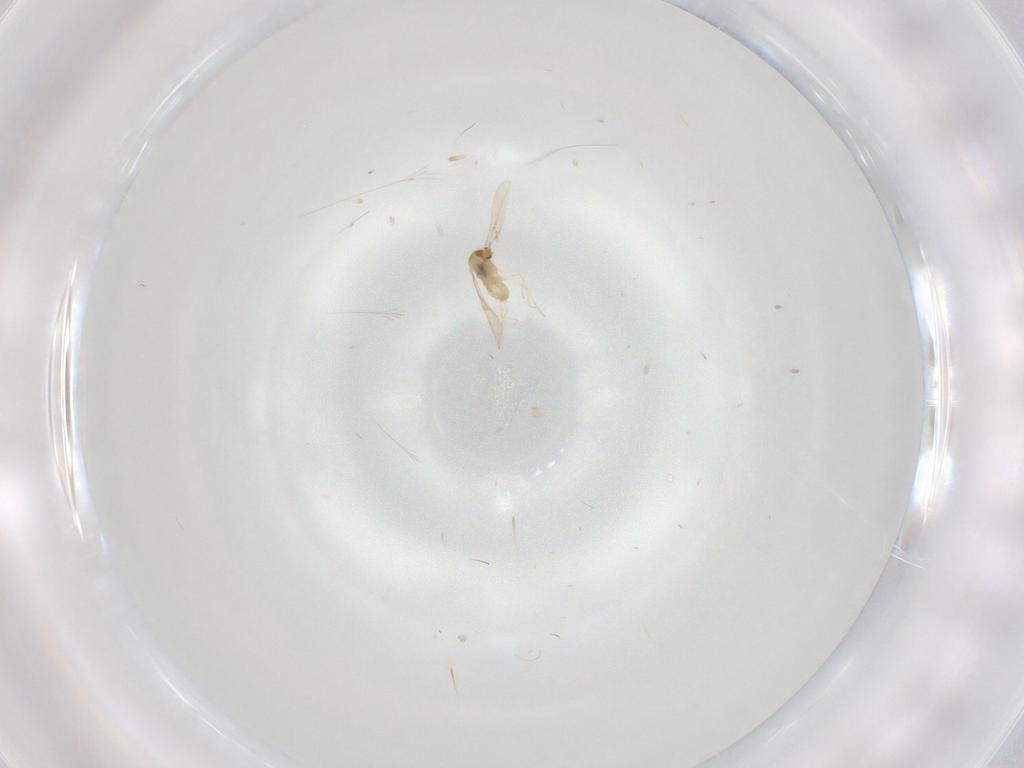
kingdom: Animalia
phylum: Arthropoda
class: Insecta
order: Diptera
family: Cecidomyiidae
